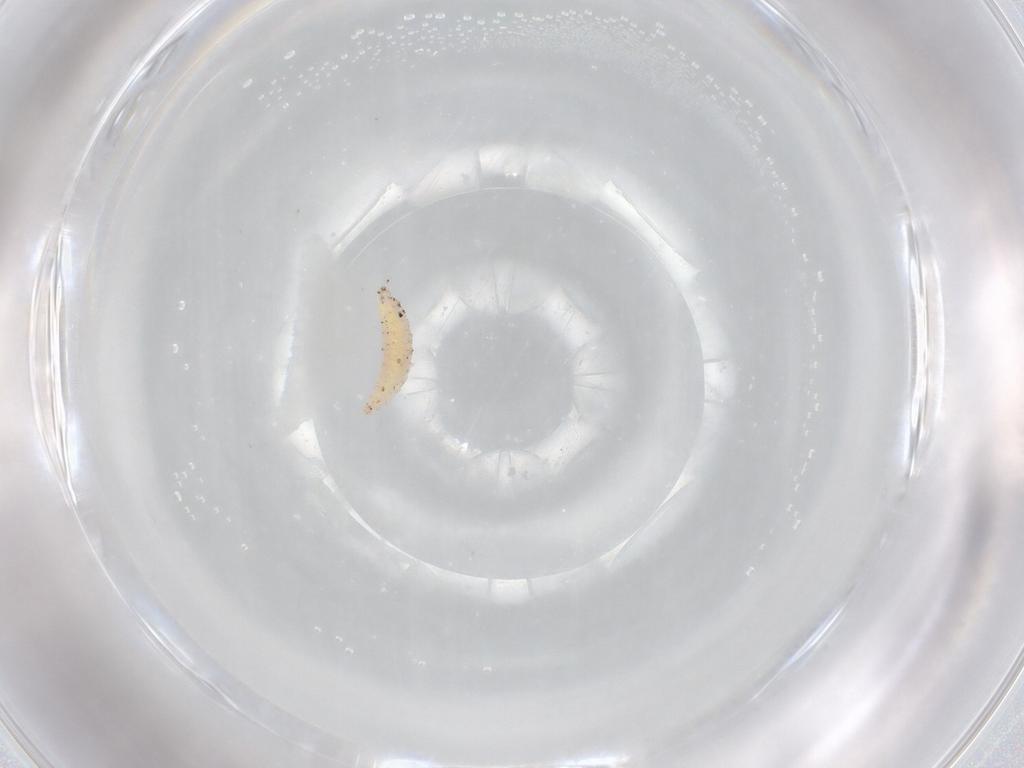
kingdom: Animalia
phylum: Arthropoda
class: Insecta
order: Diptera
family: Cecidomyiidae
